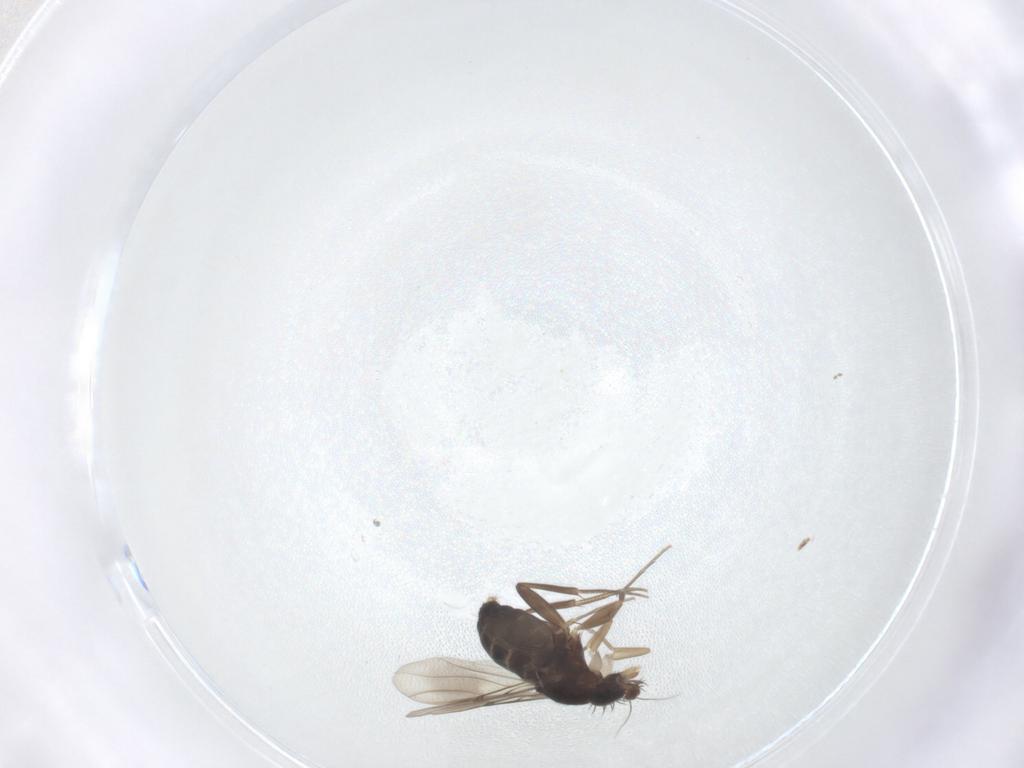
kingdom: Animalia
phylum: Arthropoda
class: Insecta
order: Diptera
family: Phoridae
